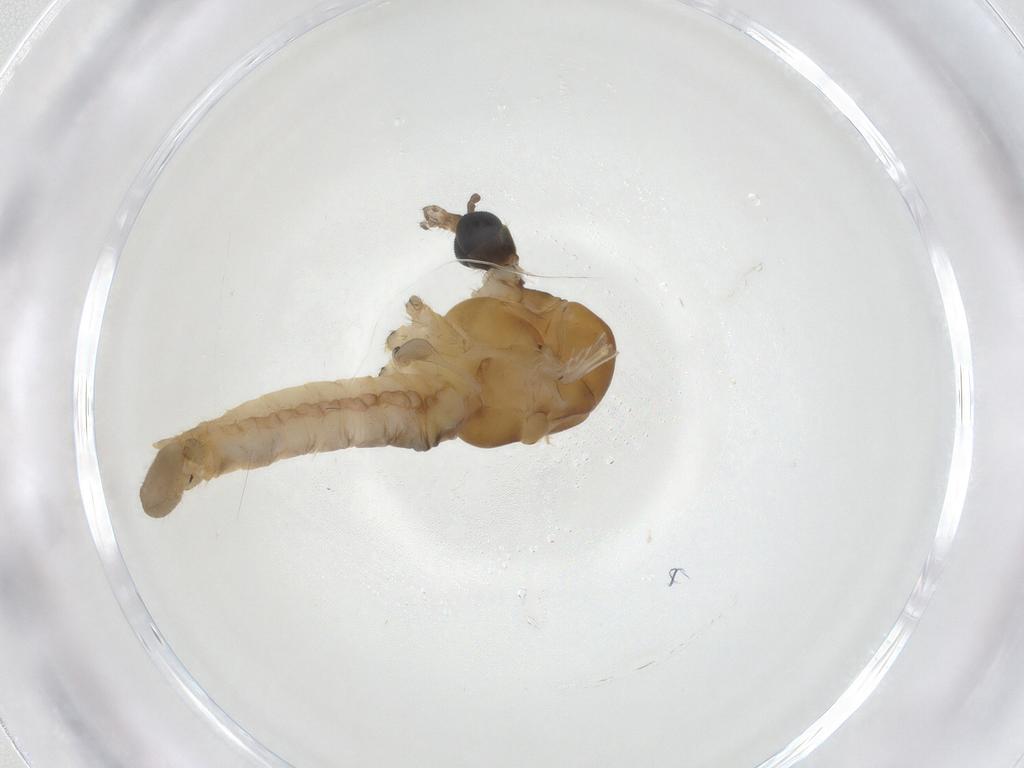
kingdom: Animalia
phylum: Arthropoda
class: Insecta
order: Diptera
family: Limoniidae
